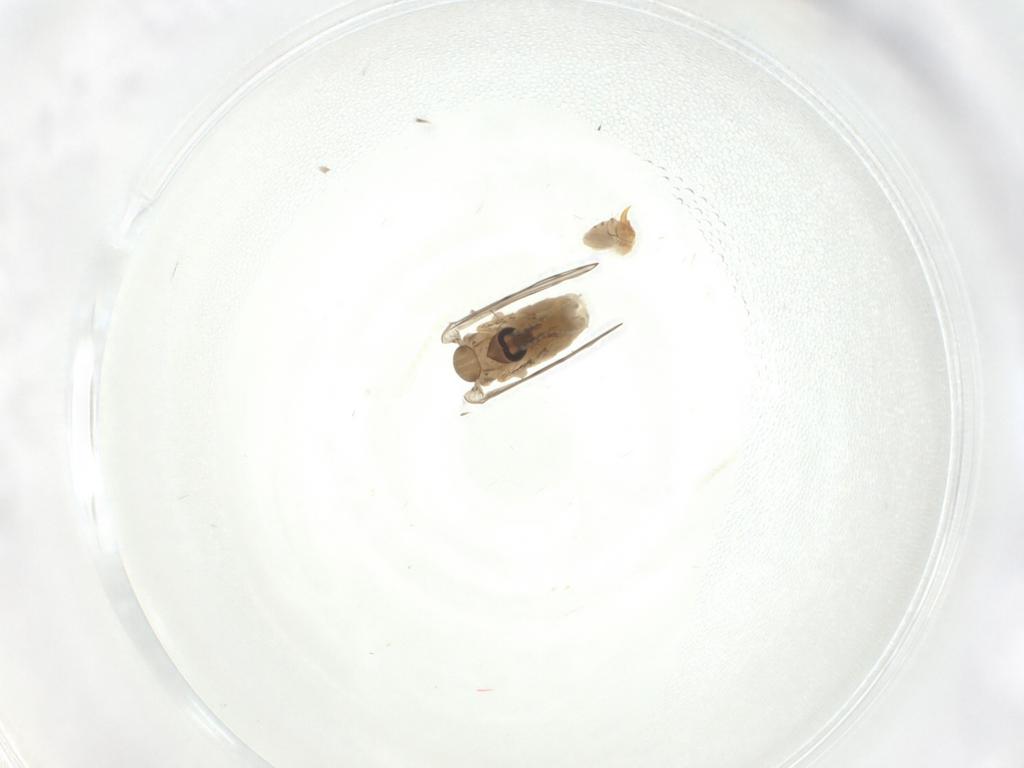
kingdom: Animalia
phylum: Arthropoda
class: Insecta
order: Diptera
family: Psychodidae
